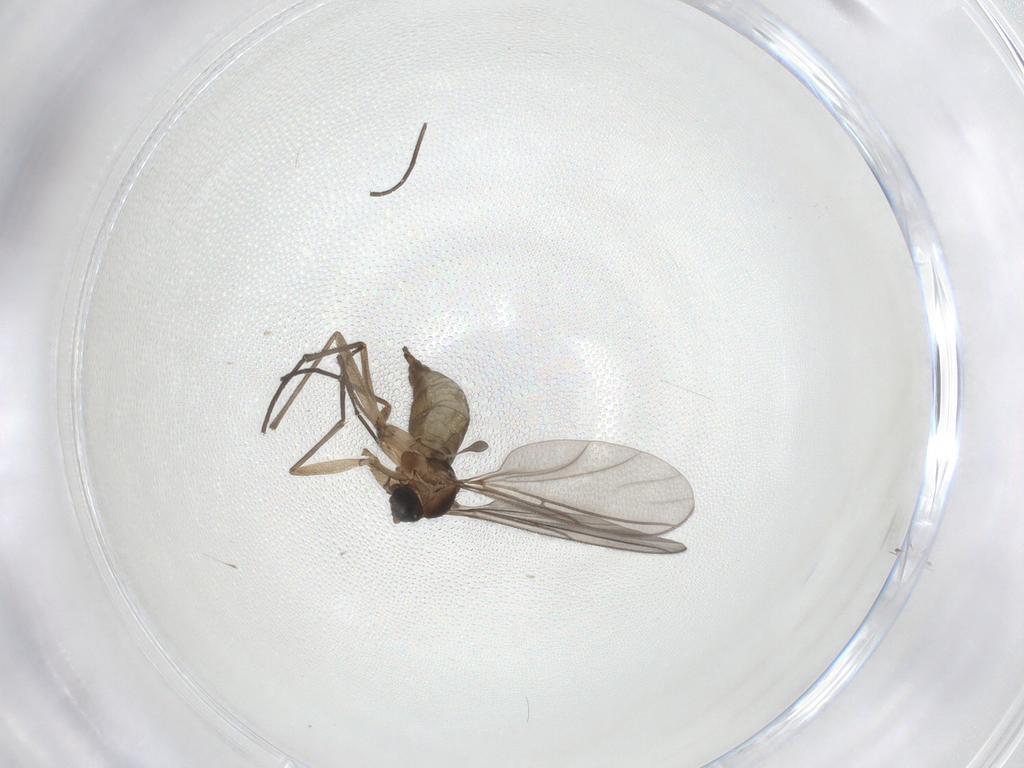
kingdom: Animalia
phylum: Arthropoda
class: Insecta
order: Diptera
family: Sciaridae
